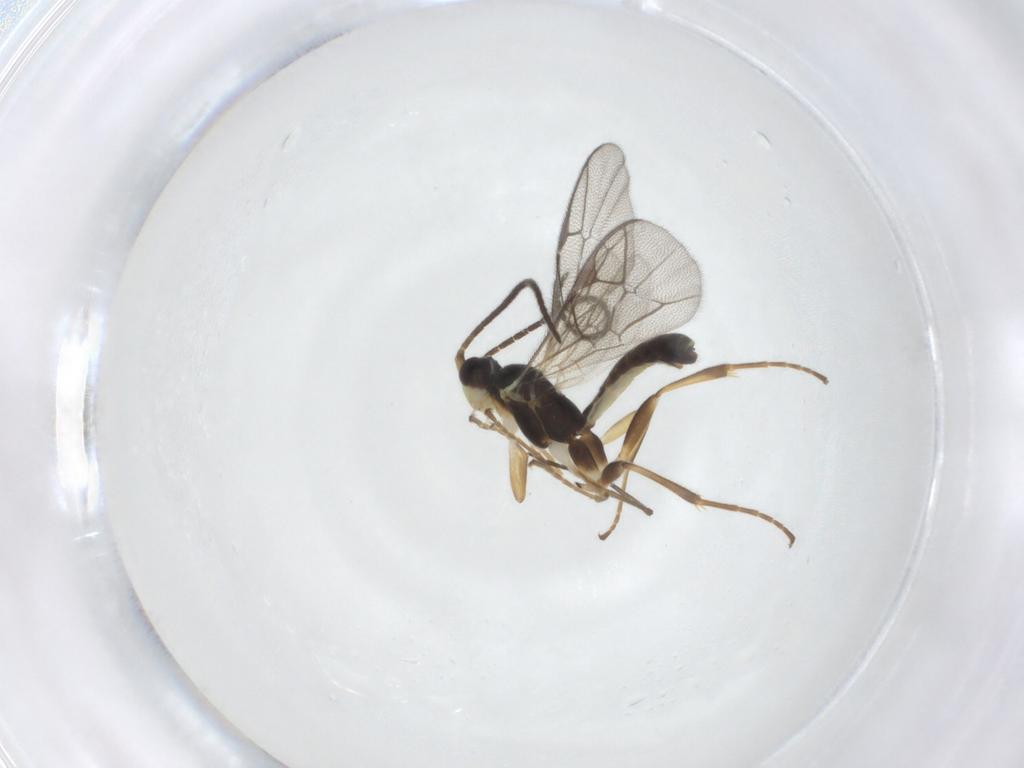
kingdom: Animalia
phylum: Arthropoda
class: Insecta
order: Hymenoptera
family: Ichneumonidae
